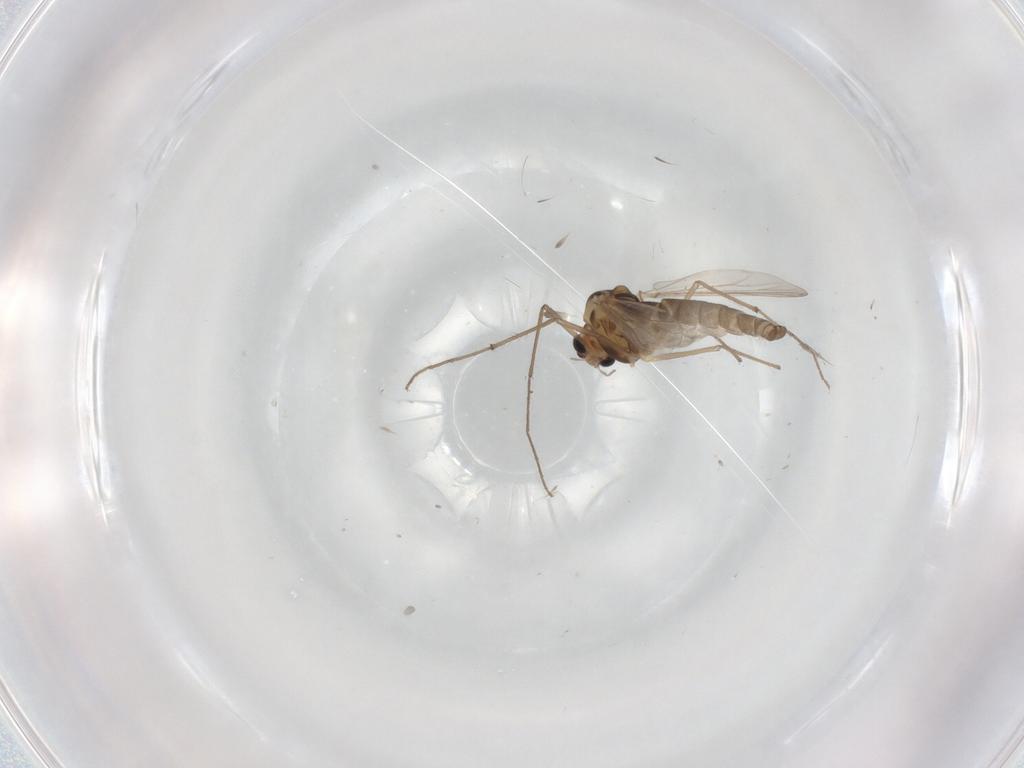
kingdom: Animalia
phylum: Arthropoda
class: Insecta
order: Diptera
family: Chironomidae
